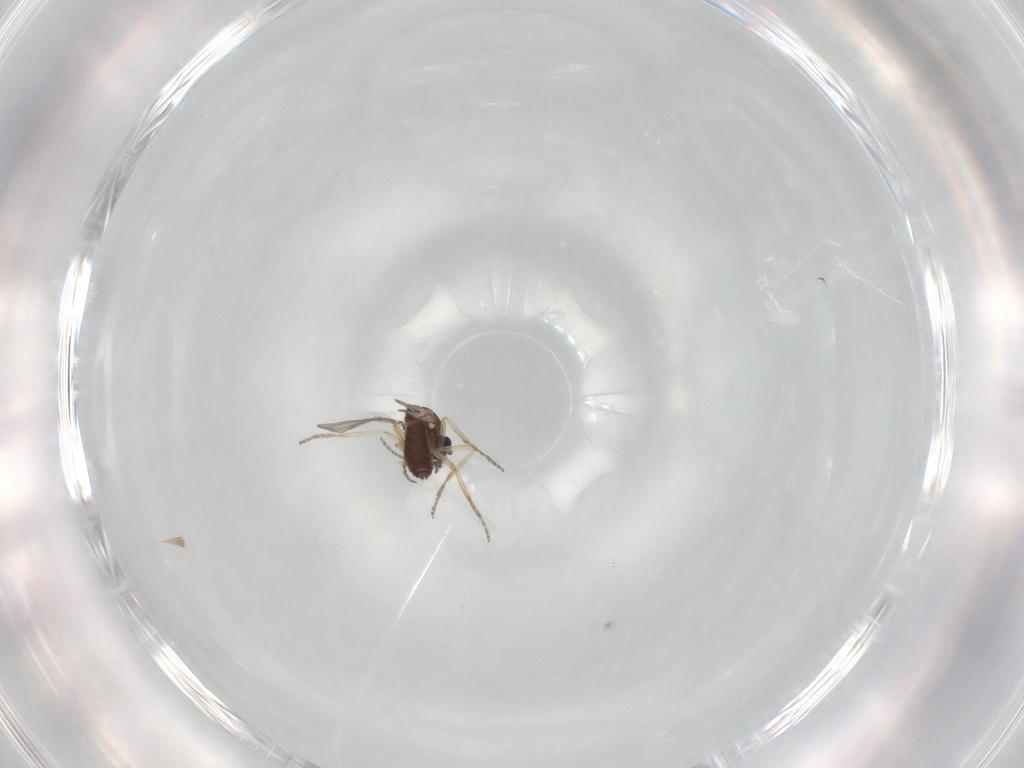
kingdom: Animalia
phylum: Arthropoda
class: Insecta
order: Diptera
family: Ceratopogonidae
